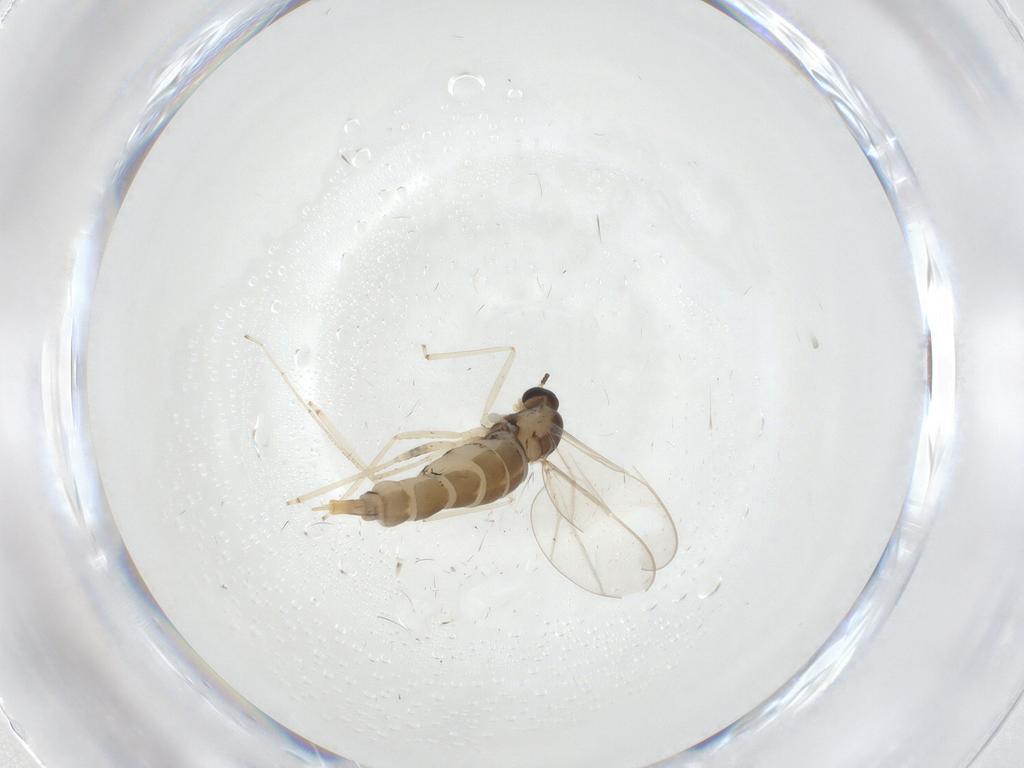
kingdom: Animalia
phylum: Arthropoda
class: Insecta
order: Diptera
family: Cecidomyiidae
